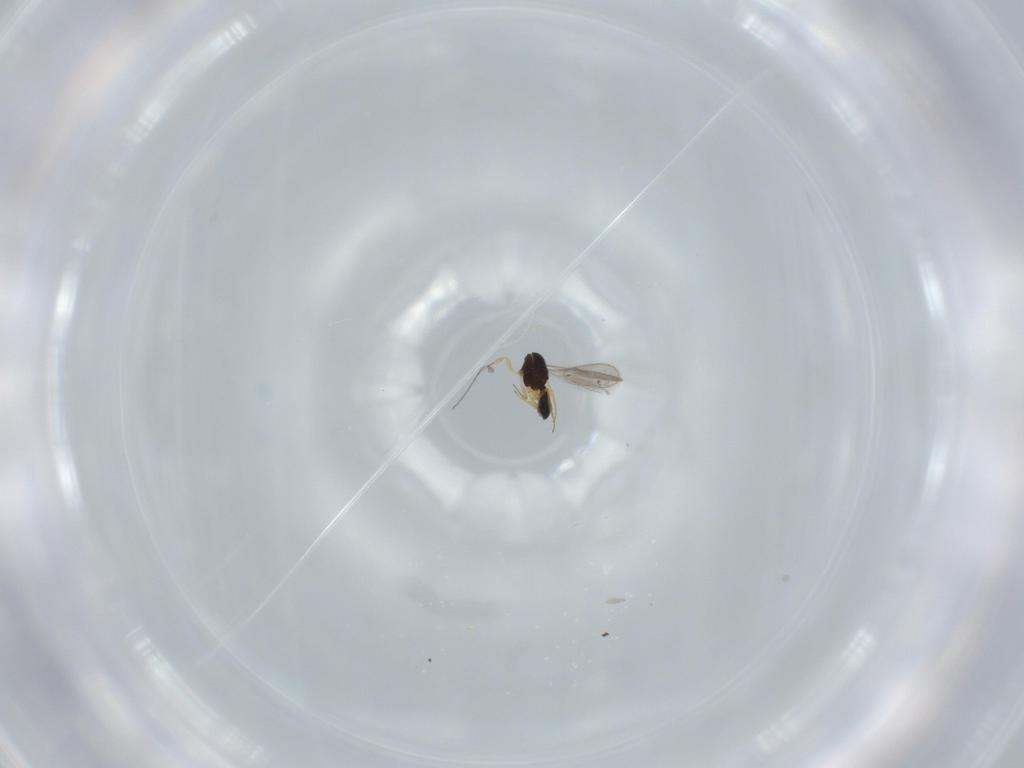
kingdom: Animalia
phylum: Arthropoda
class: Insecta
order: Hymenoptera
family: Scelionidae
